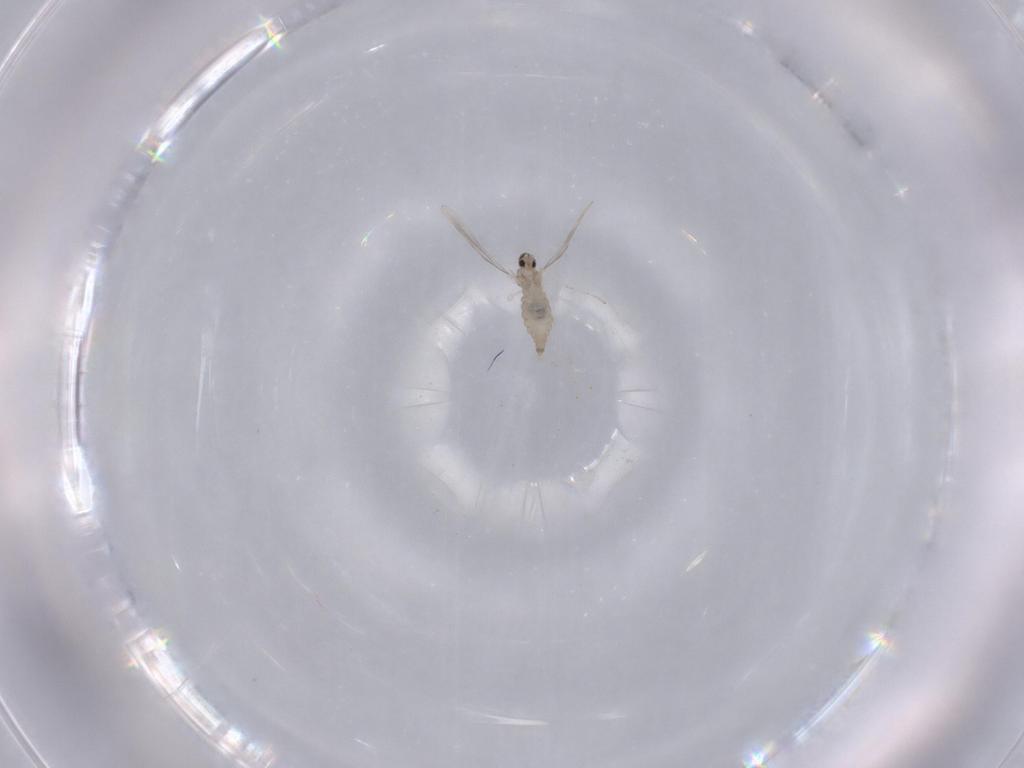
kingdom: Animalia
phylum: Arthropoda
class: Insecta
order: Diptera
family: Cecidomyiidae
